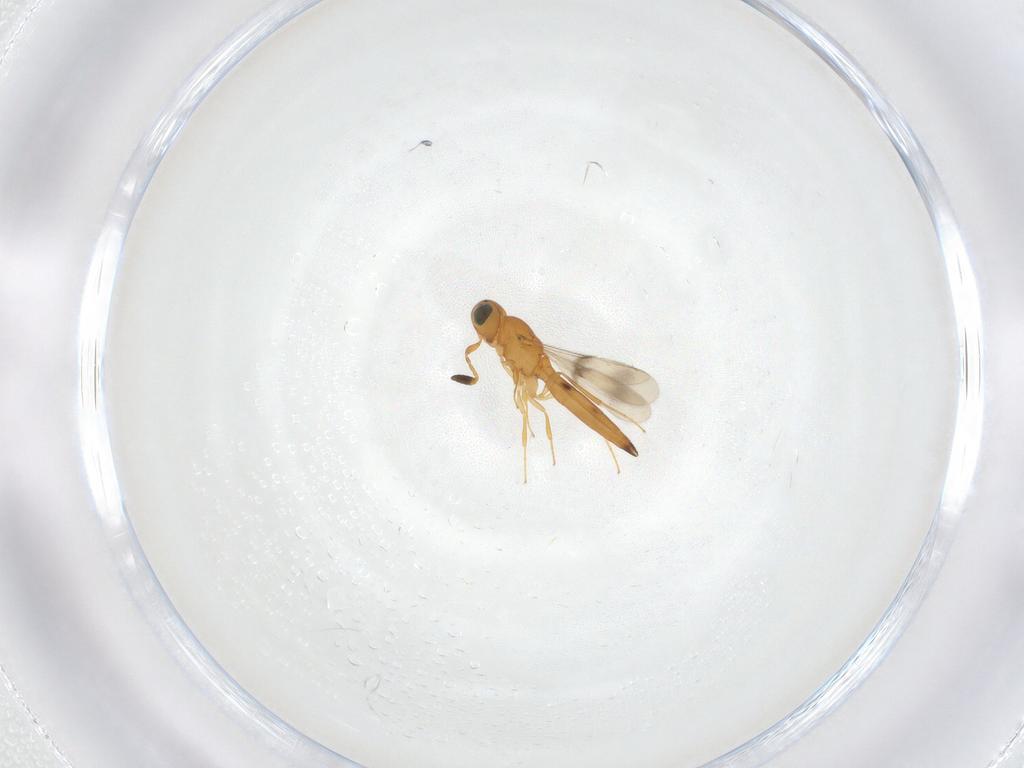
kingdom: Animalia
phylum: Arthropoda
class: Insecta
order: Hymenoptera
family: Scelionidae
